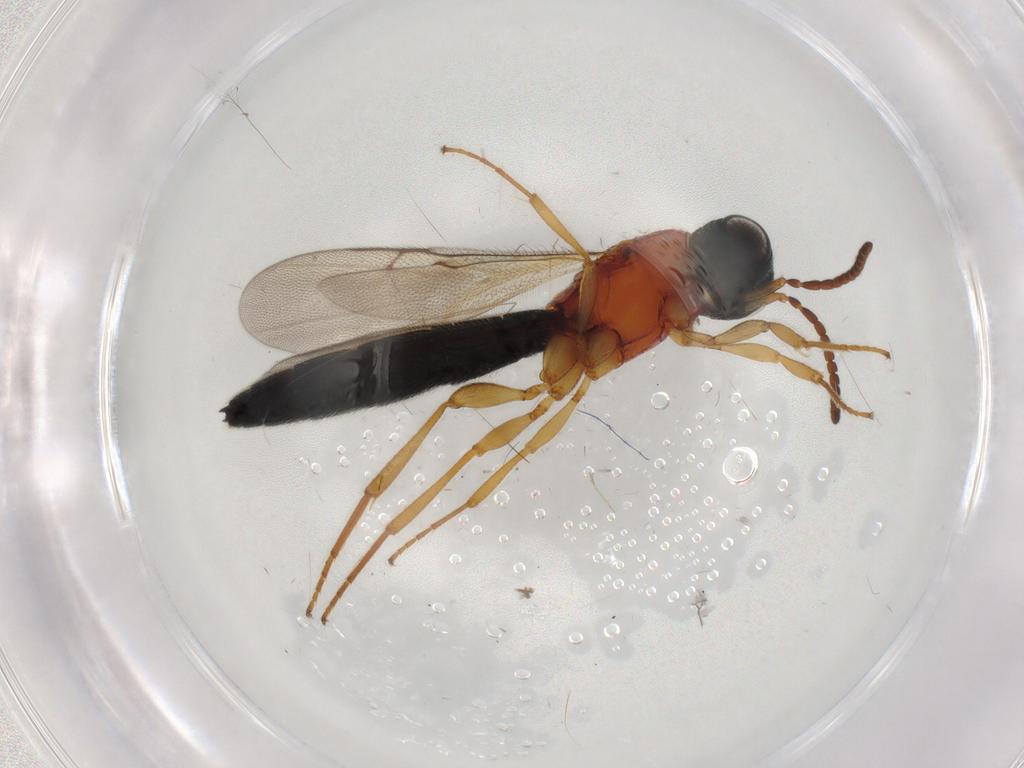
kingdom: Animalia
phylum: Arthropoda
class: Insecta
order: Hymenoptera
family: Scelionidae
